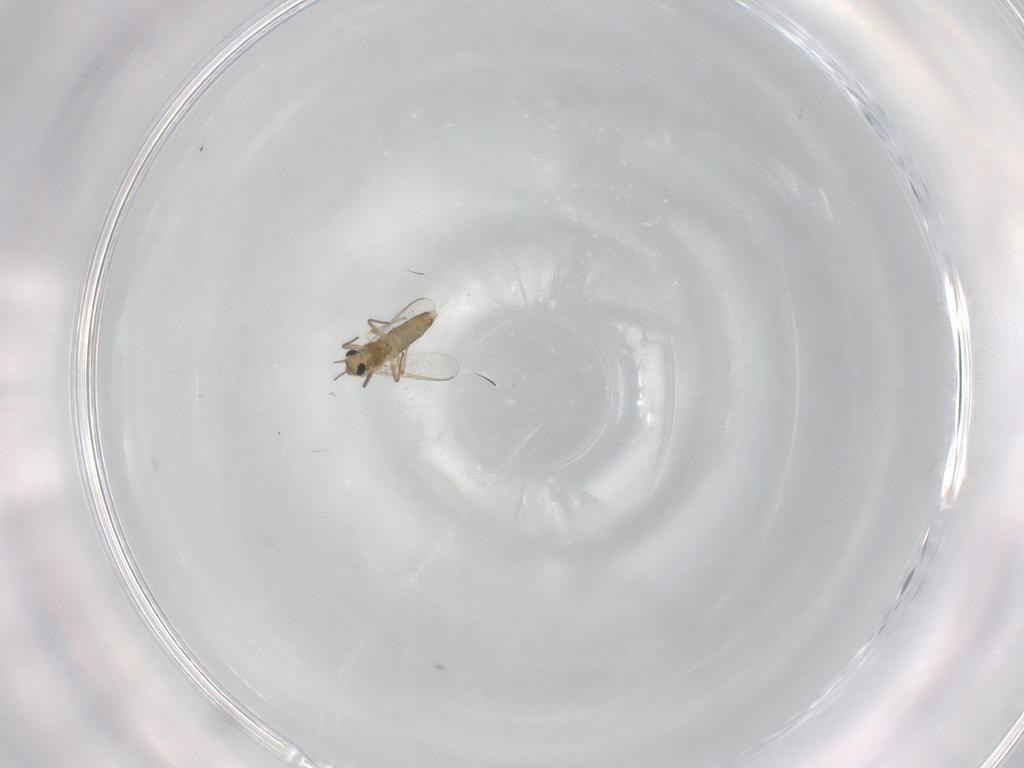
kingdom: Animalia
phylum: Arthropoda
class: Insecta
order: Diptera
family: Chironomidae
